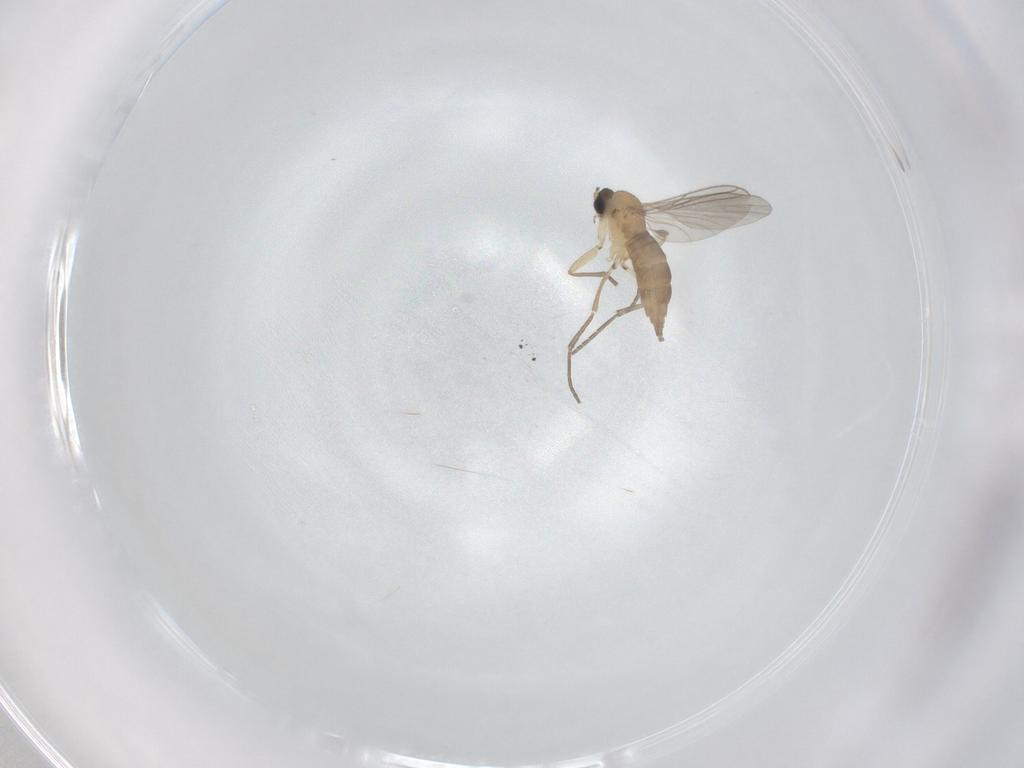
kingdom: Animalia
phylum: Arthropoda
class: Insecta
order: Diptera
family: Sciaridae
